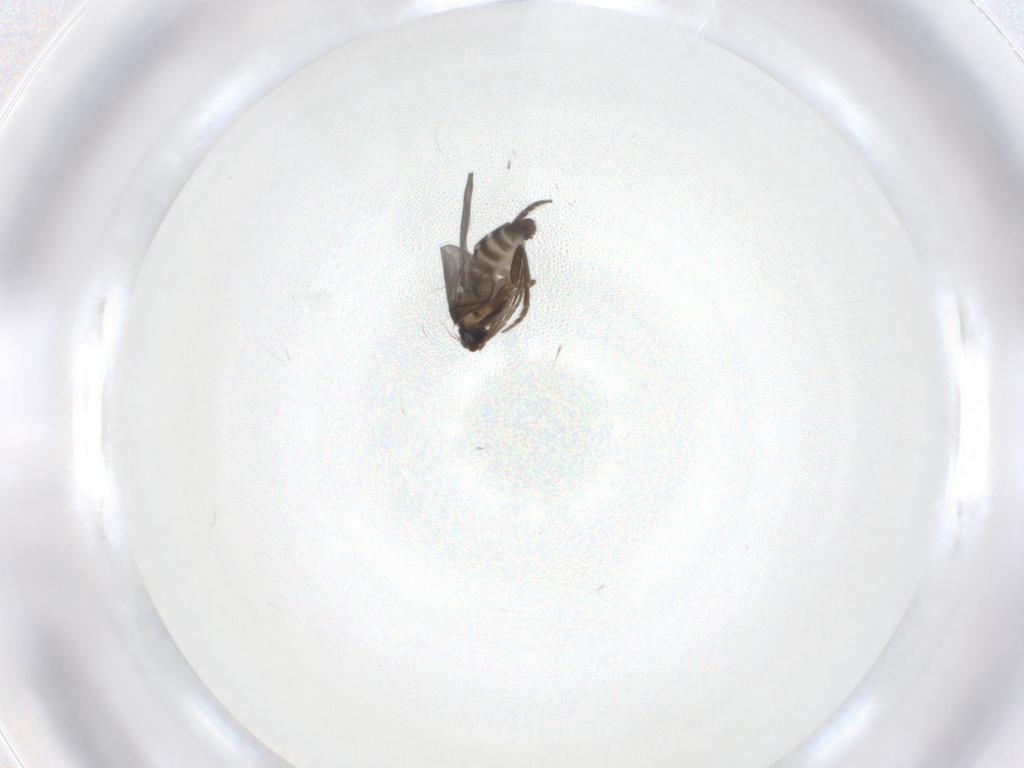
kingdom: Animalia
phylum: Arthropoda
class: Insecta
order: Diptera
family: Phoridae
